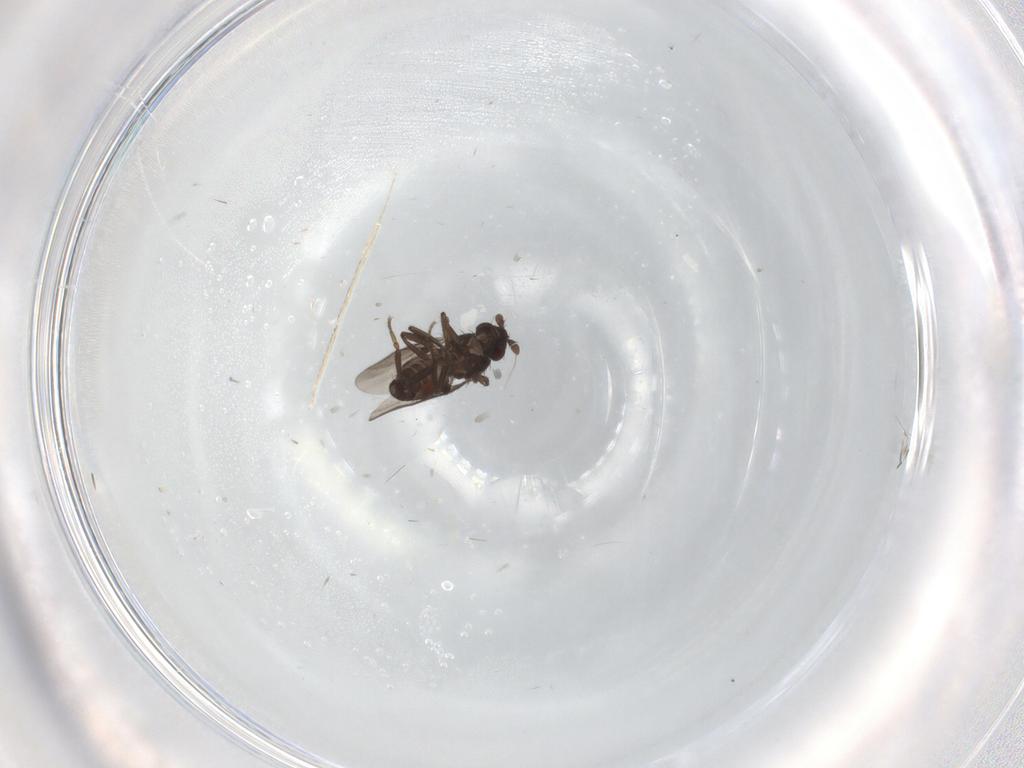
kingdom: Animalia
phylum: Arthropoda
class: Insecta
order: Diptera
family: Sphaeroceridae
